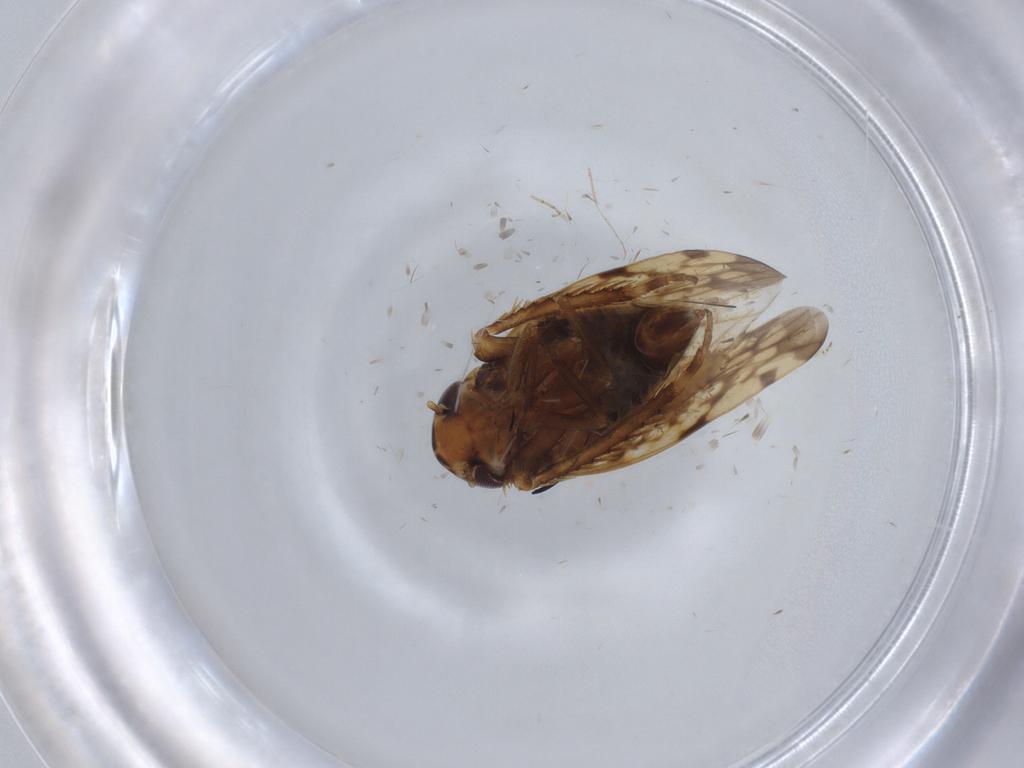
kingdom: Animalia
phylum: Arthropoda
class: Insecta
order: Hemiptera
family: Cicadellidae
